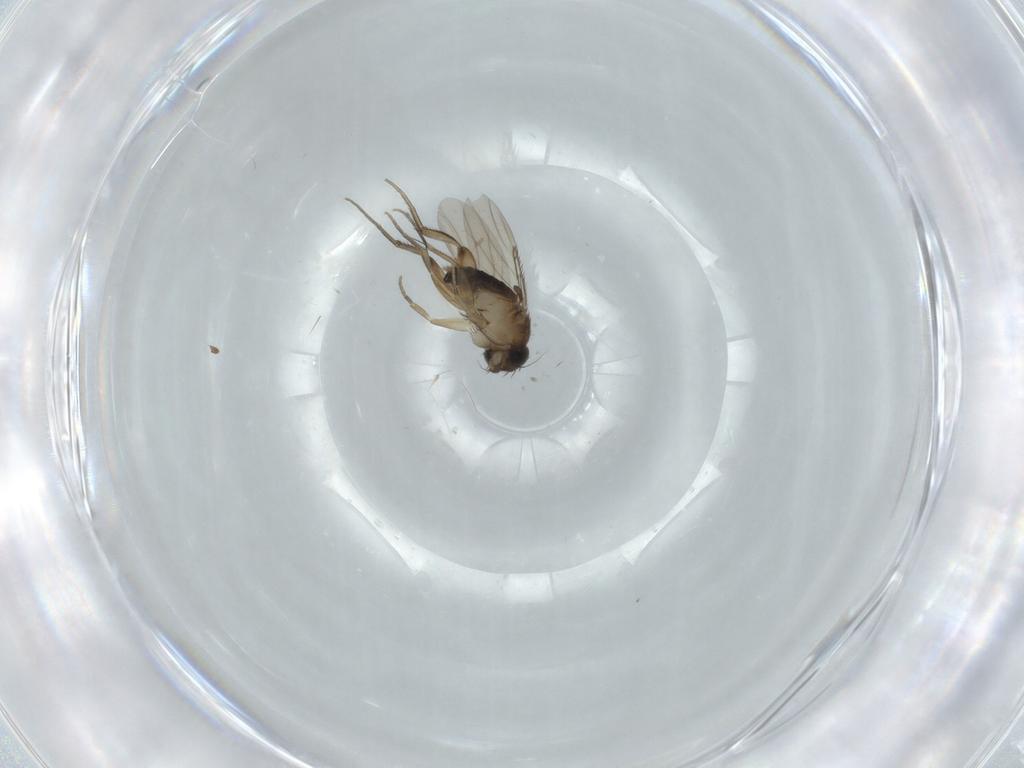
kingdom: Animalia
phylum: Arthropoda
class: Insecta
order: Diptera
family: Phoridae
